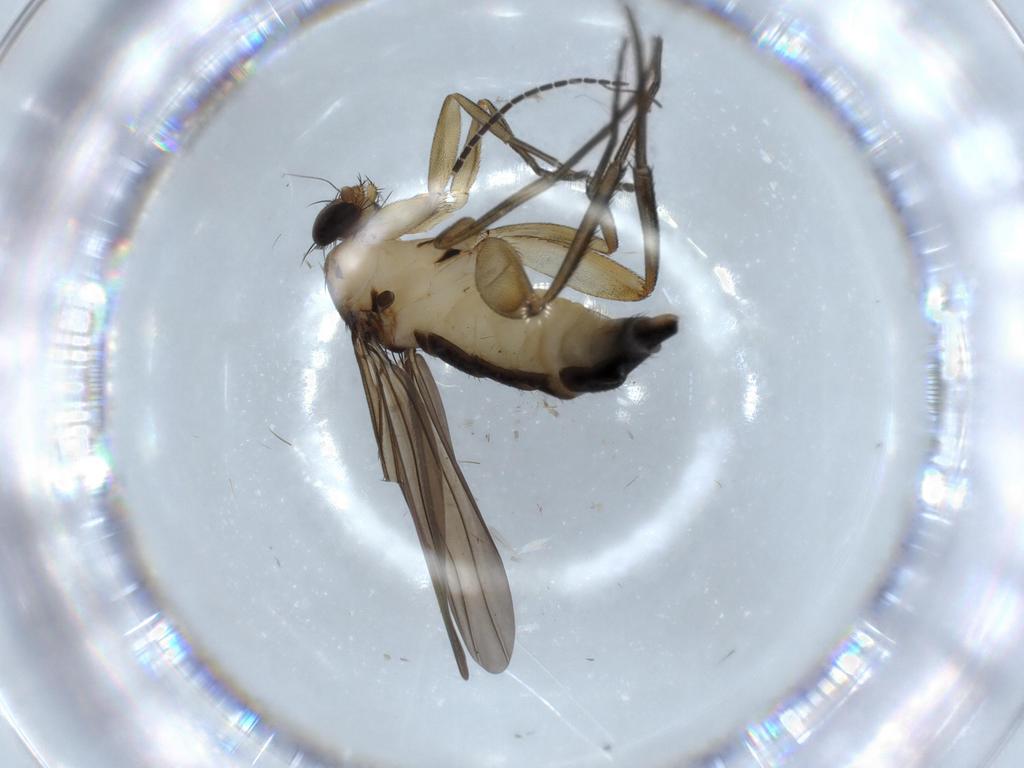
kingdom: Animalia
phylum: Arthropoda
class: Insecta
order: Diptera
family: Phoridae
